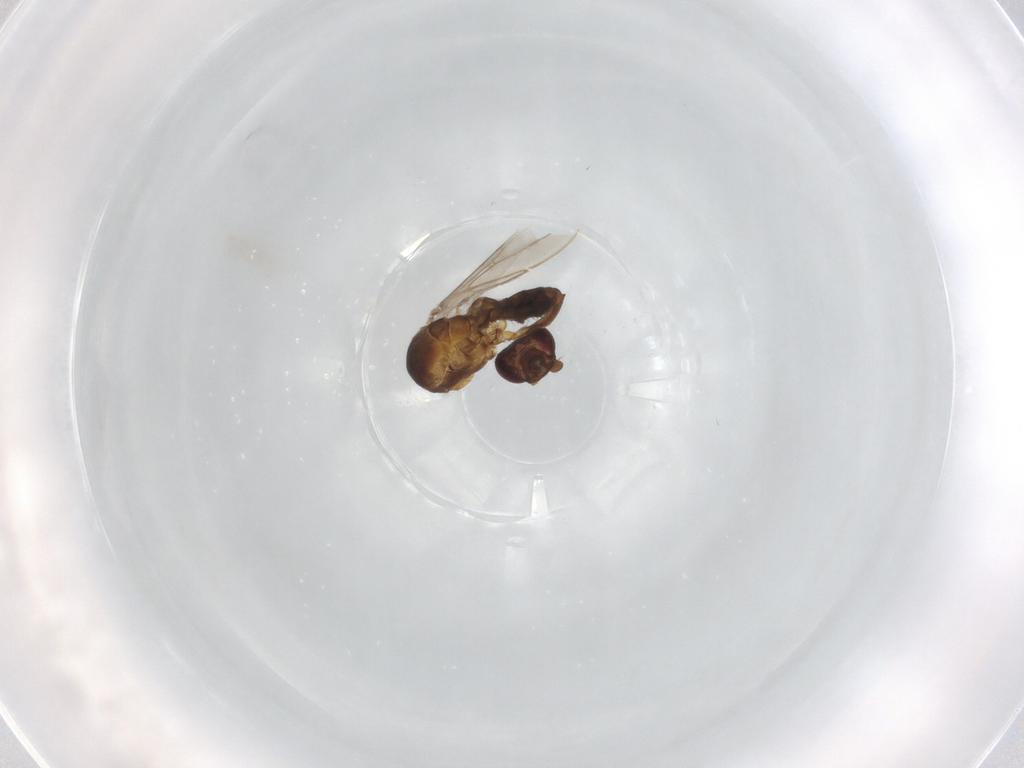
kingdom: Animalia
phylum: Arthropoda
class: Insecta
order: Diptera
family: Sphaeroceridae
